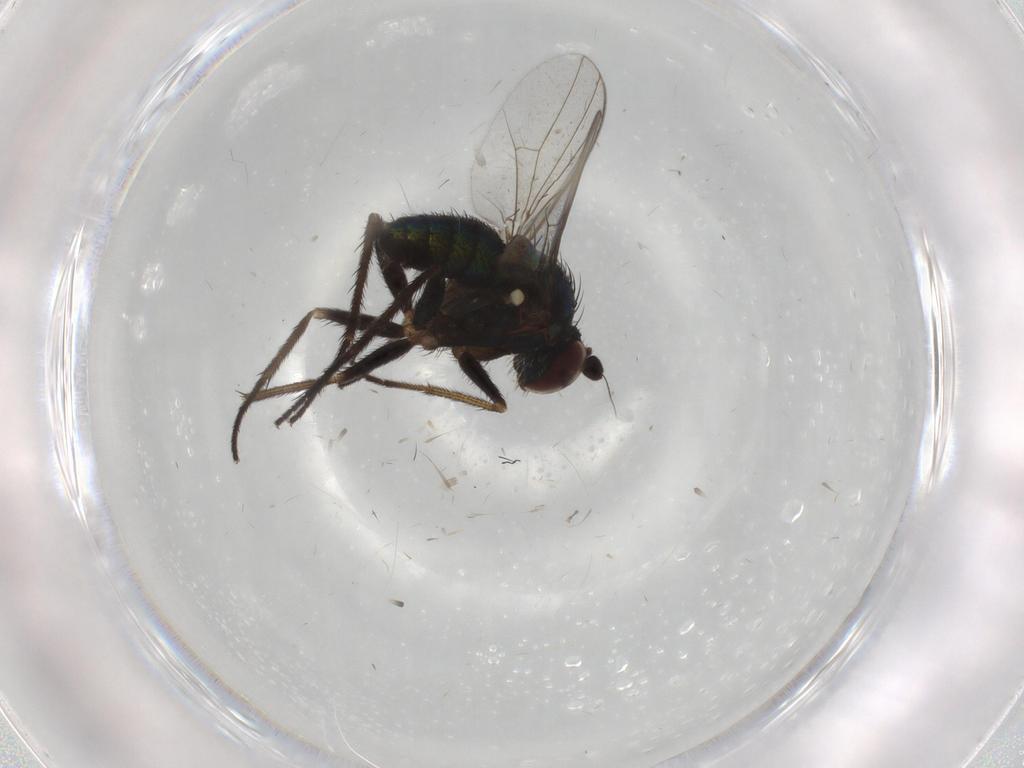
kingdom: Animalia
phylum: Arthropoda
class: Insecta
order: Diptera
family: Dolichopodidae
